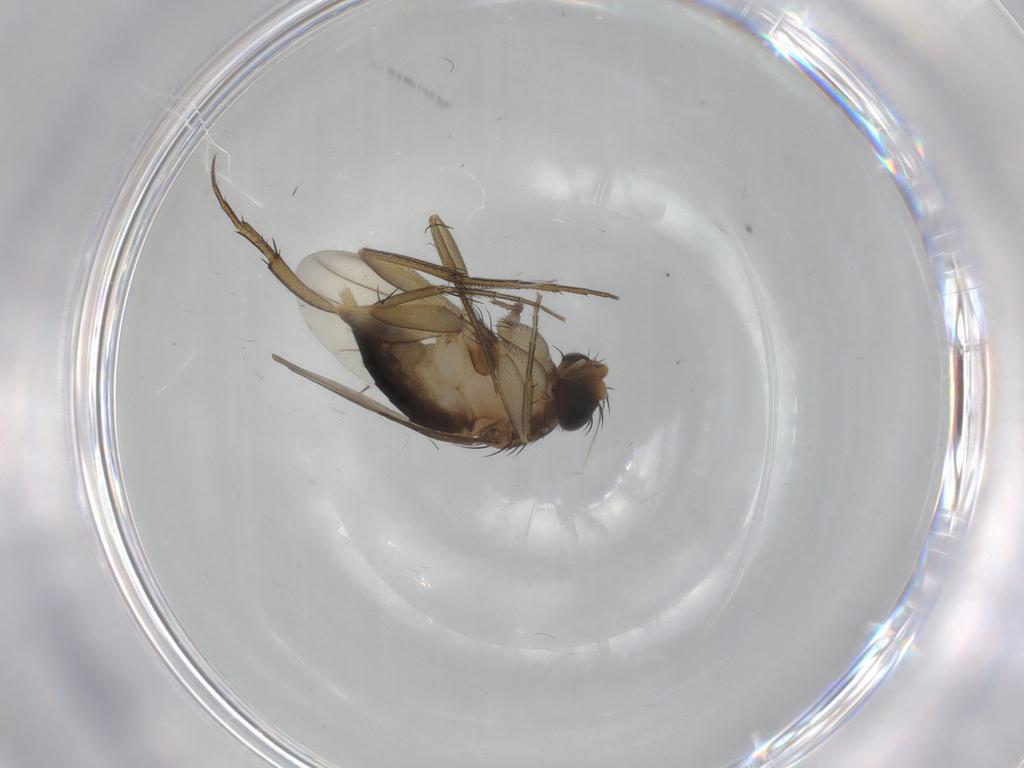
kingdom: Animalia
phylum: Arthropoda
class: Insecta
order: Diptera
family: Phoridae
